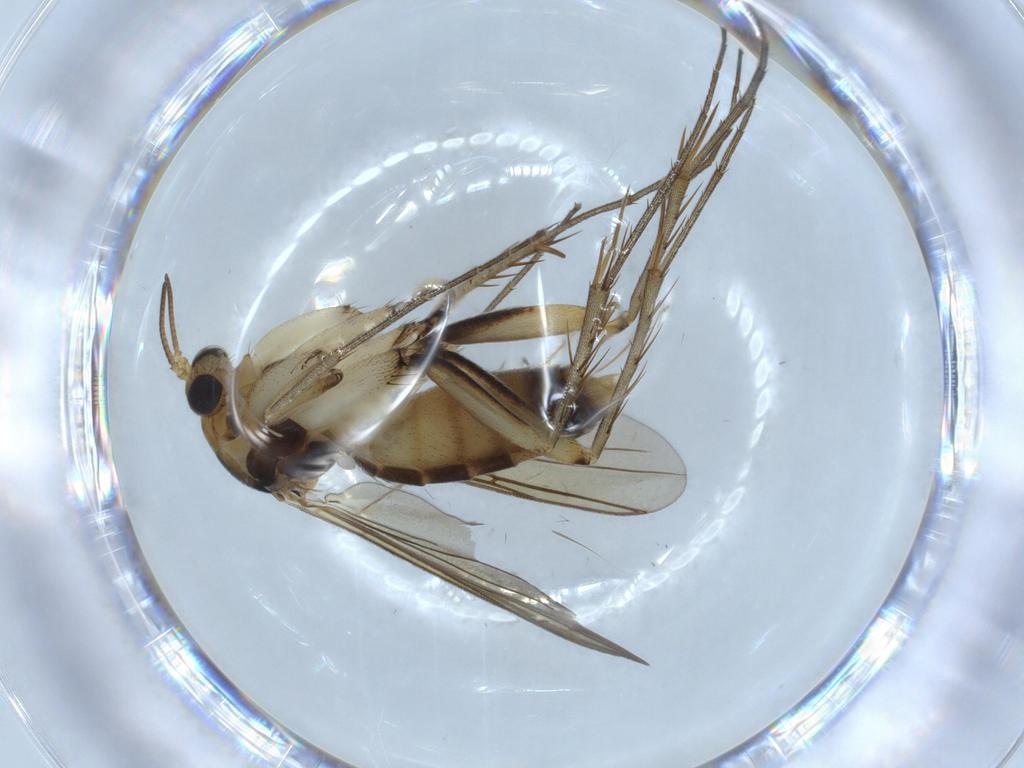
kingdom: Animalia
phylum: Arthropoda
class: Insecta
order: Diptera
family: Mycetophilidae
